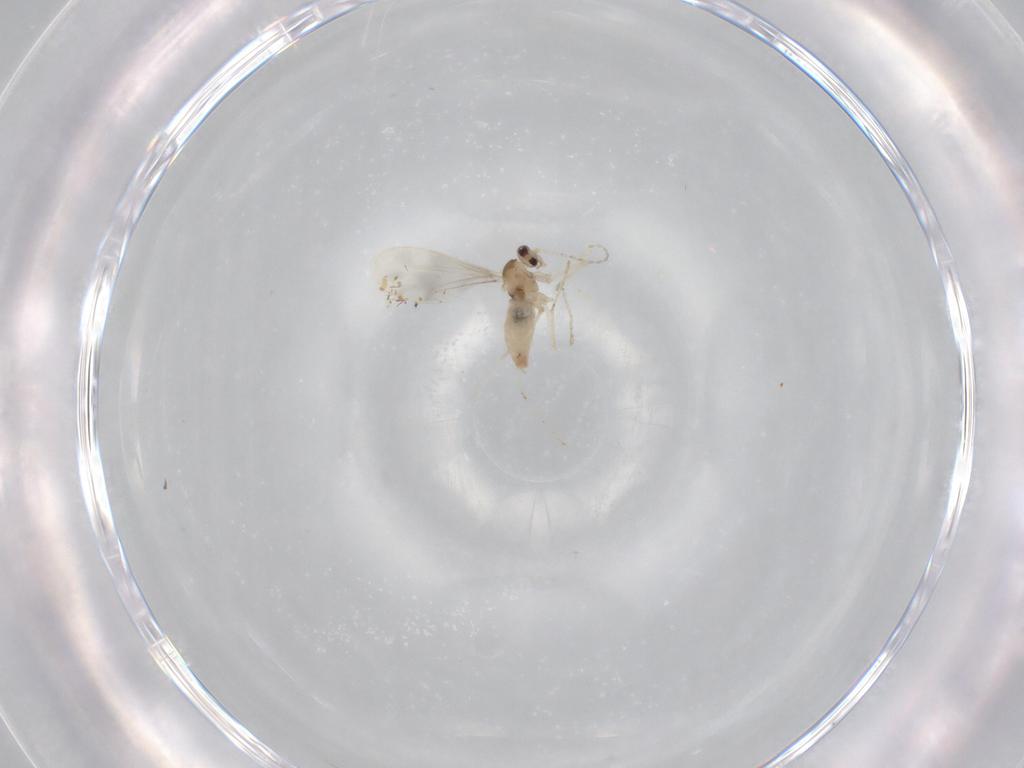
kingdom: Animalia
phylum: Arthropoda
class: Insecta
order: Diptera
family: Cecidomyiidae
